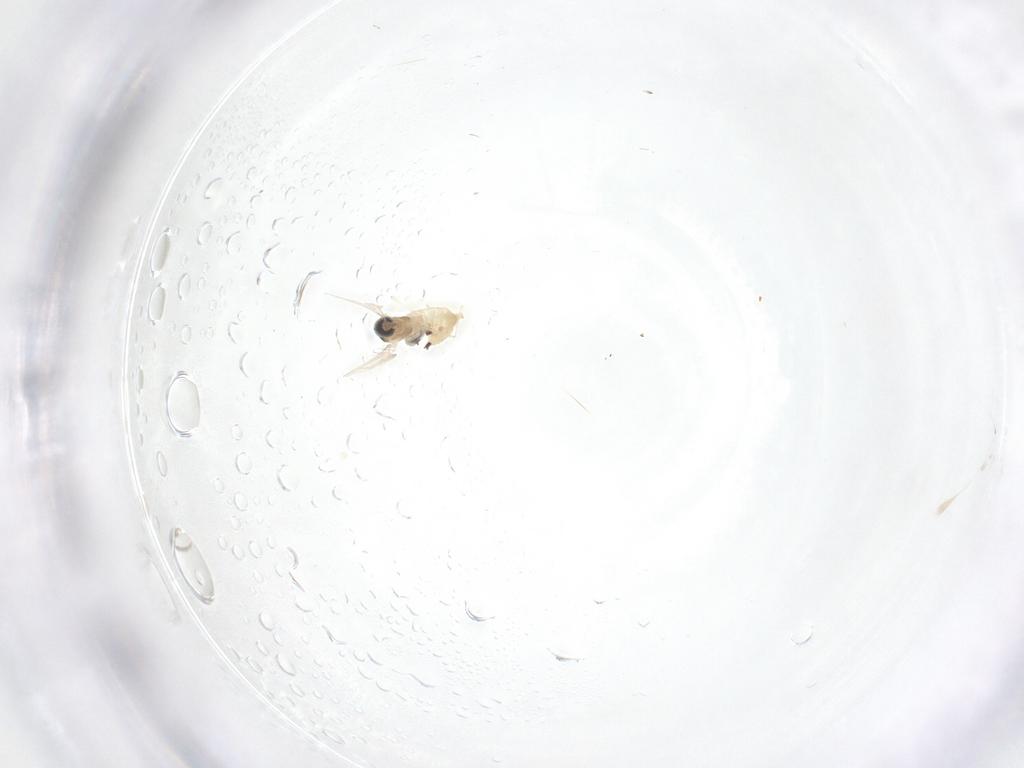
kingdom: Animalia
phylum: Arthropoda
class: Insecta
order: Diptera
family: Cecidomyiidae
